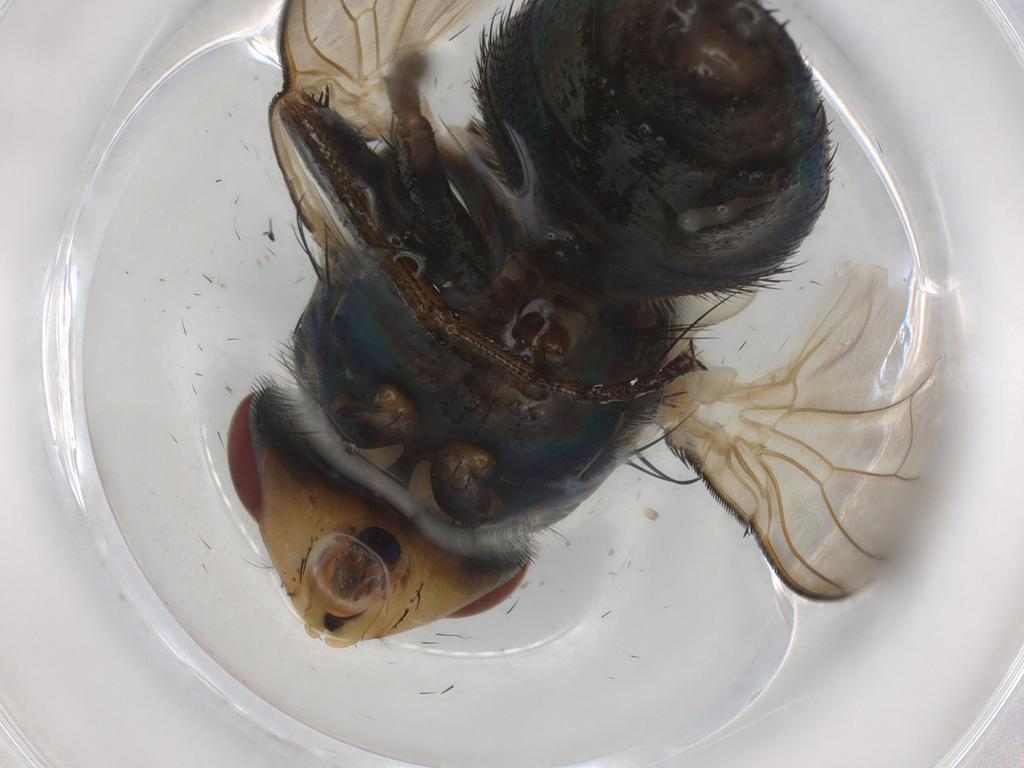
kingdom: Animalia
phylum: Arthropoda
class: Insecta
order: Diptera
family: Calliphoridae
